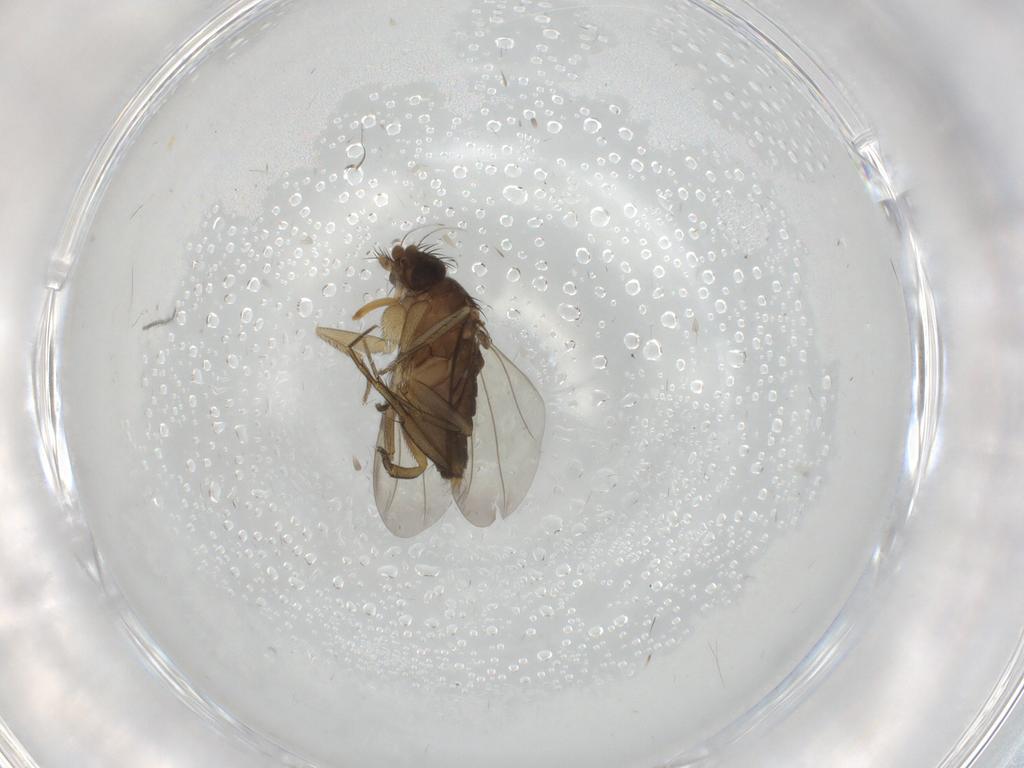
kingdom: Animalia
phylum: Arthropoda
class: Insecta
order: Diptera
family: Phoridae
